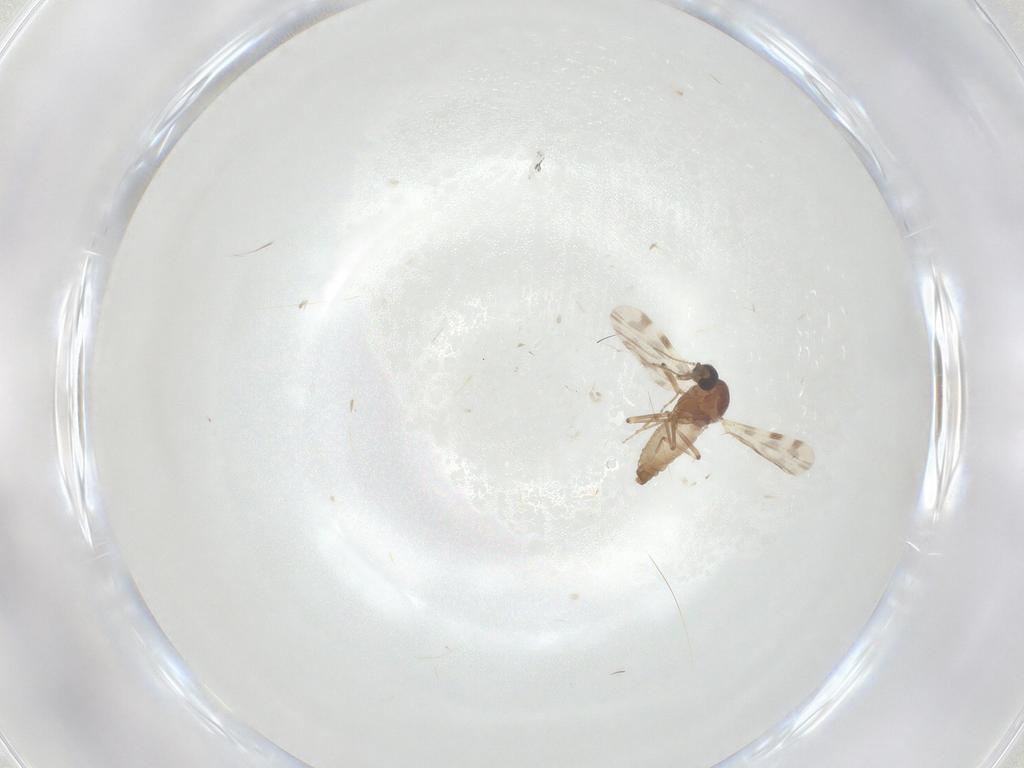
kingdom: Animalia
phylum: Arthropoda
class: Insecta
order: Diptera
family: Ceratopogonidae
